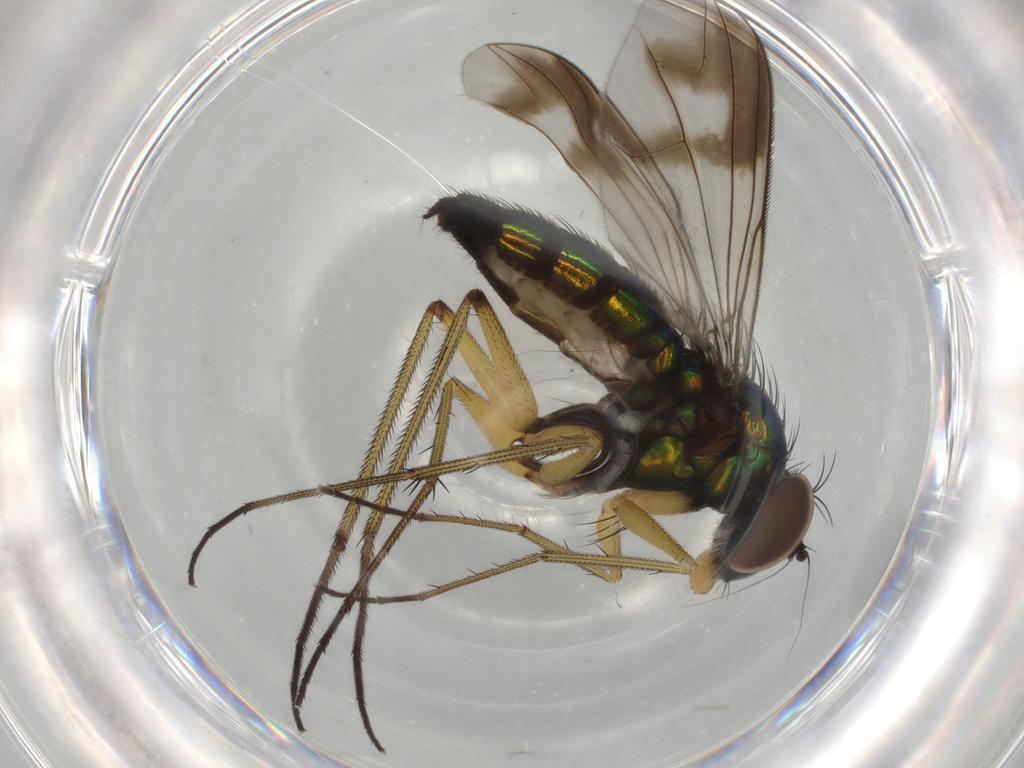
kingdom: Animalia
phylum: Arthropoda
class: Insecta
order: Diptera
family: Dolichopodidae
